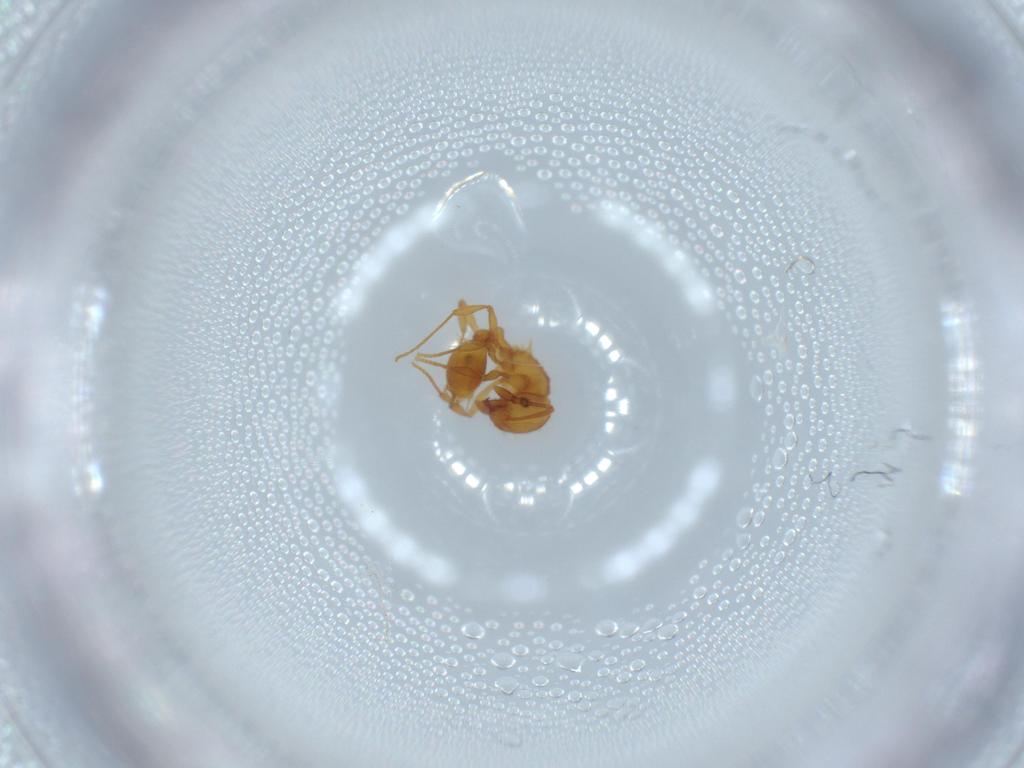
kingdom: Animalia
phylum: Arthropoda
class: Insecta
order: Hymenoptera
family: Formicidae
